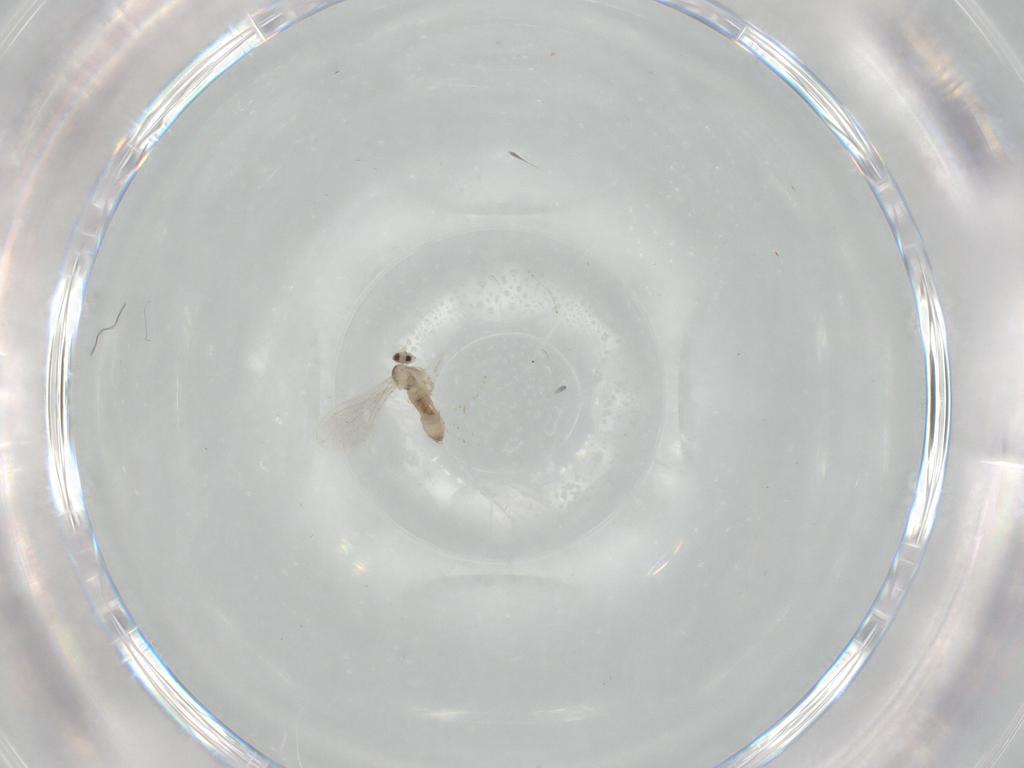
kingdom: Animalia
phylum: Arthropoda
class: Insecta
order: Diptera
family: Cecidomyiidae
